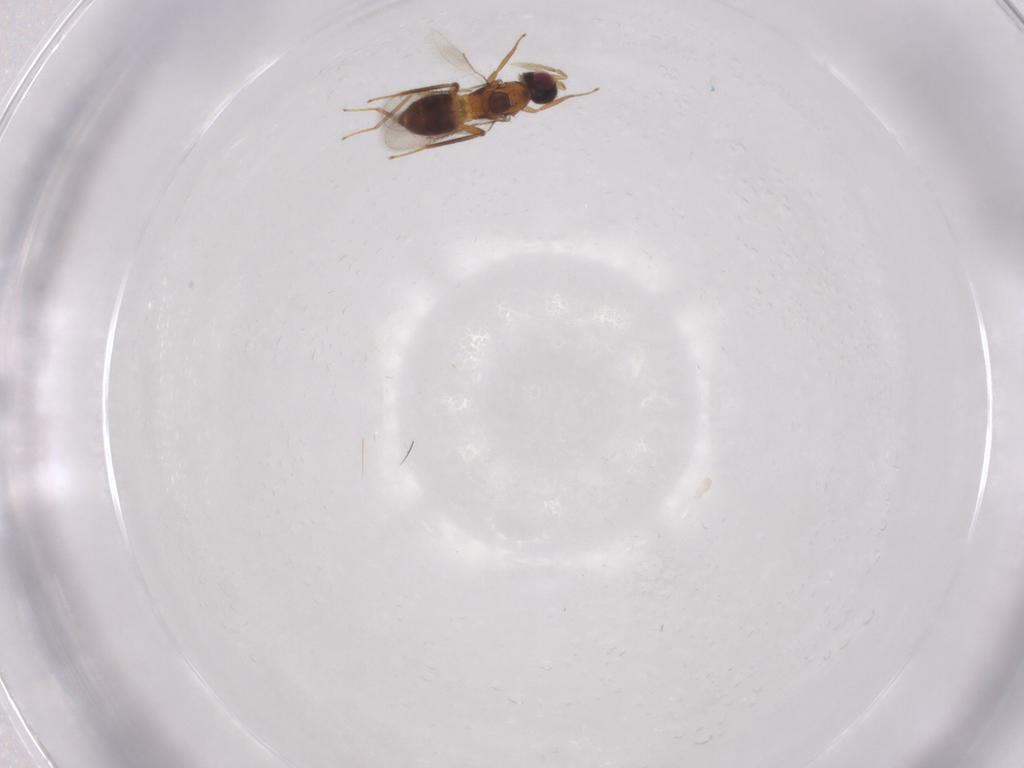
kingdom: Animalia
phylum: Arthropoda
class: Insecta
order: Hymenoptera
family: Eulophidae
